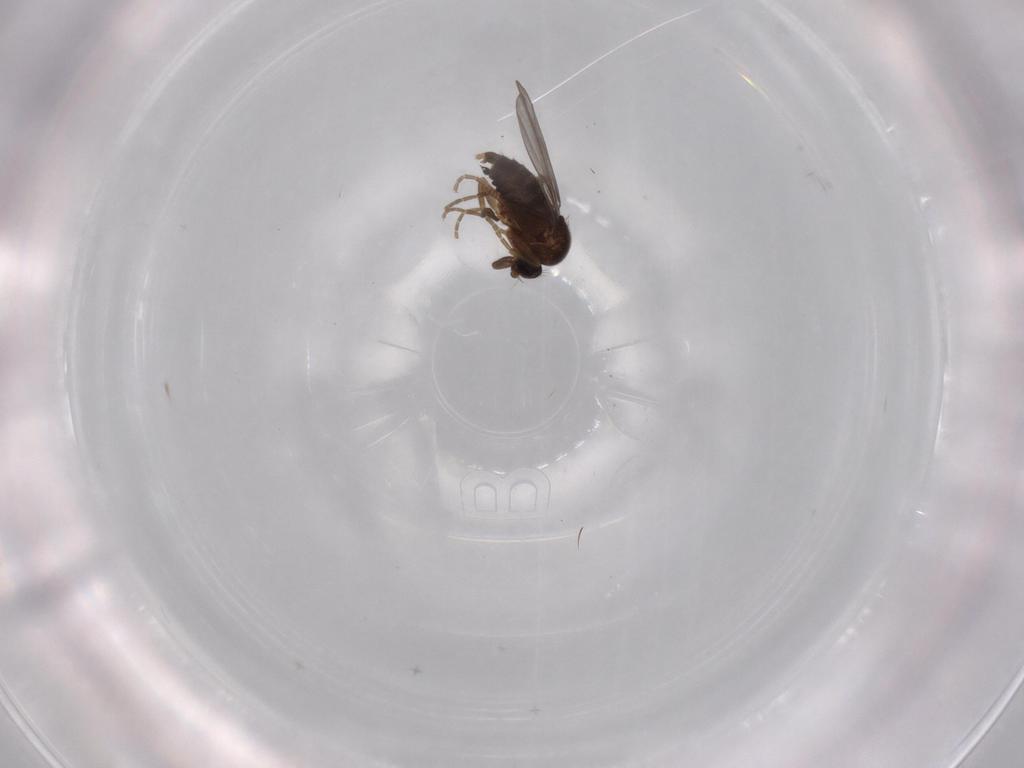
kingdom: Animalia
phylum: Arthropoda
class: Insecta
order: Diptera
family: Phoridae
